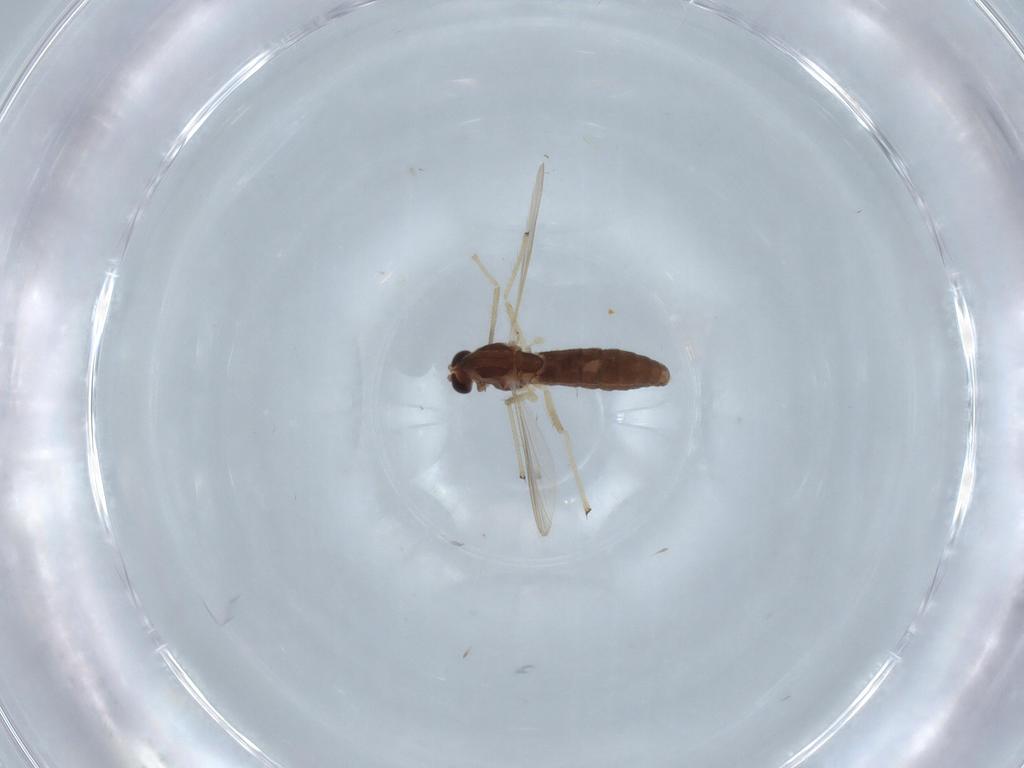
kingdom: Animalia
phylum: Arthropoda
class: Insecta
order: Diptera
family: Chironomidae
